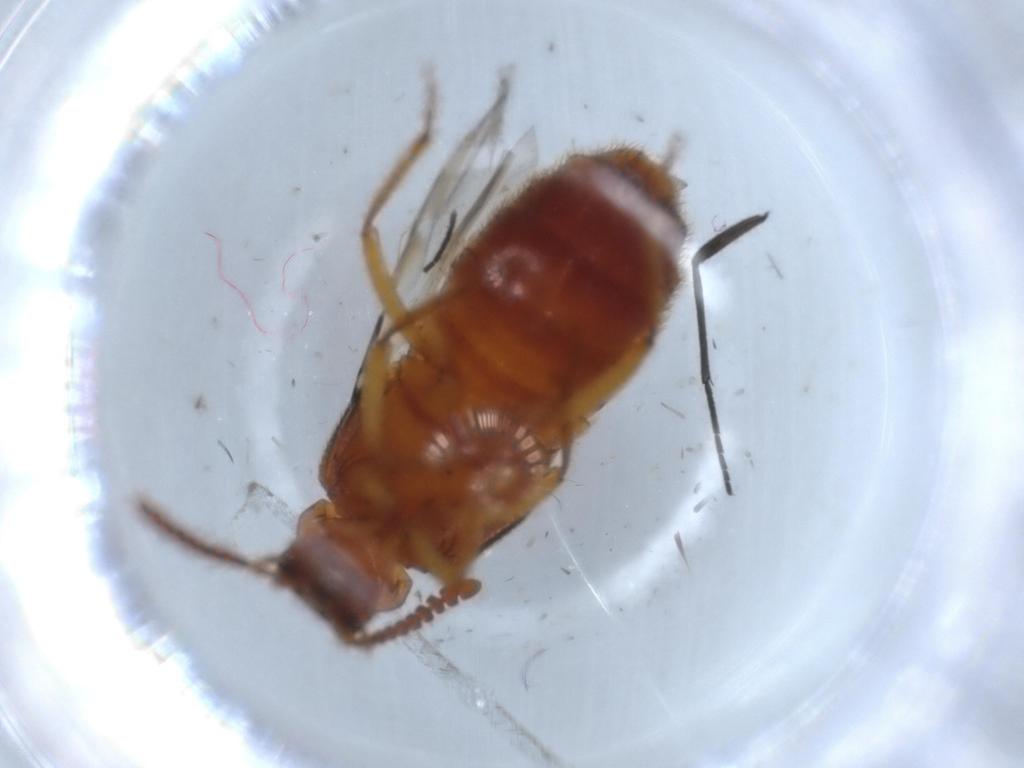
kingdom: Animalia
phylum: Arthropoda
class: Insecta
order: Coleoptera
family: Staphylinidae
